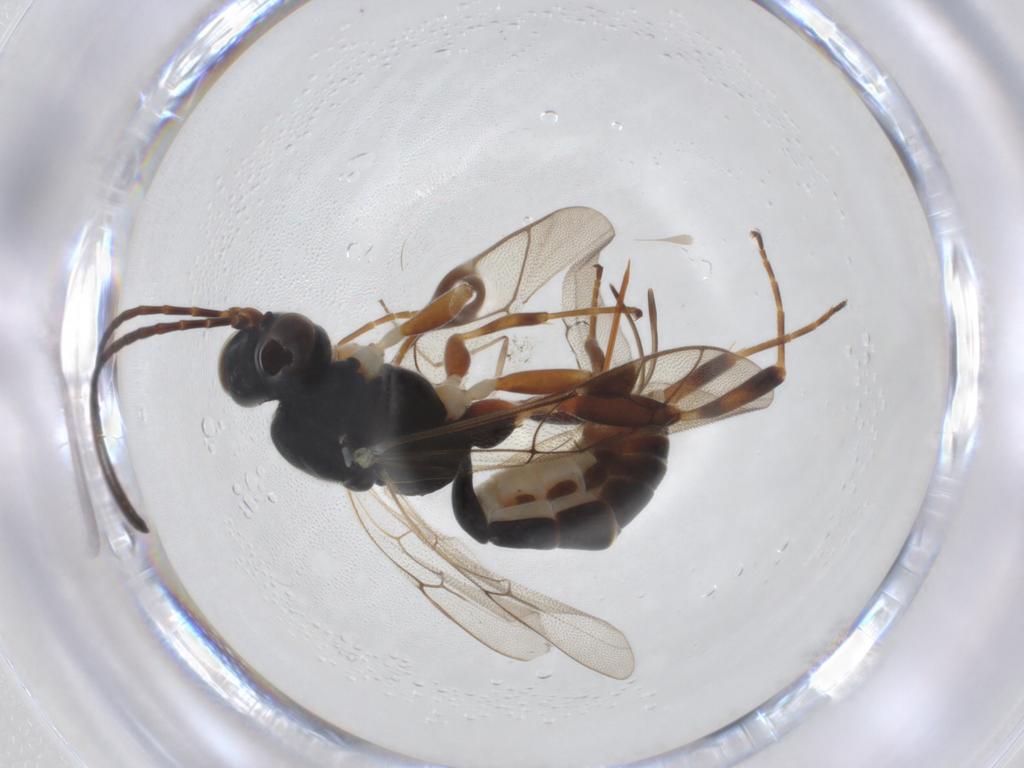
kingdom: Animalia
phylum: Arthropoda
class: Insecta
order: Hymenoptera
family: Ichneumonidae
